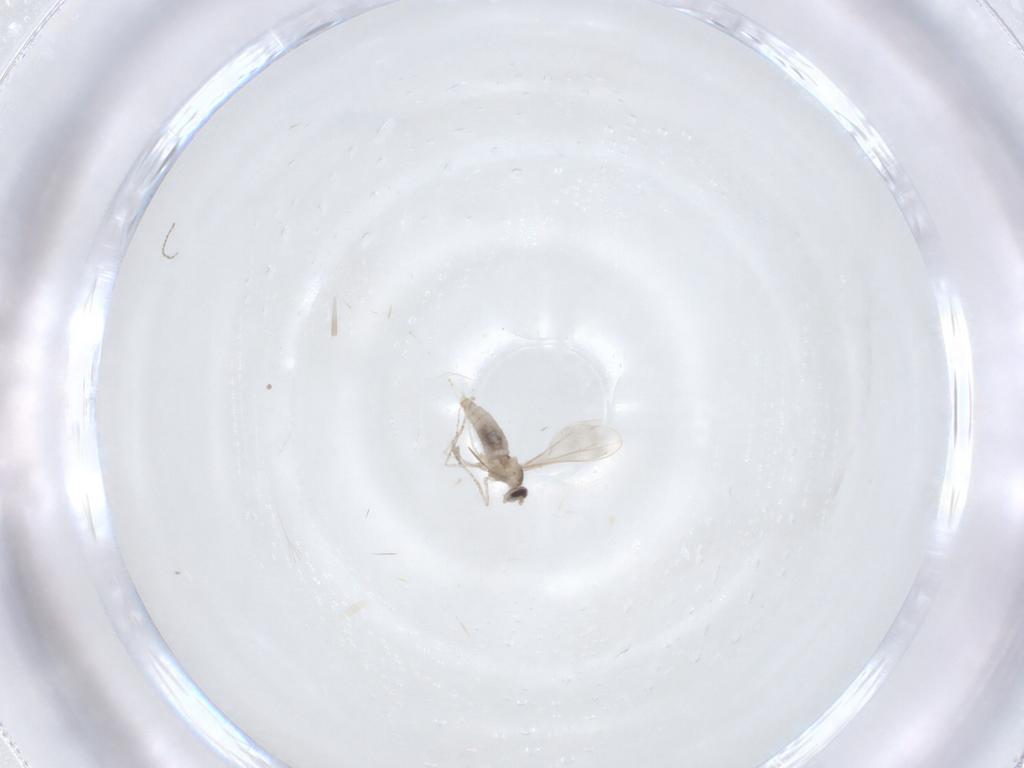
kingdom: Animalia
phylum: Arthropoda
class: Insecta
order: Diptera
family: Cecidomyiidae
